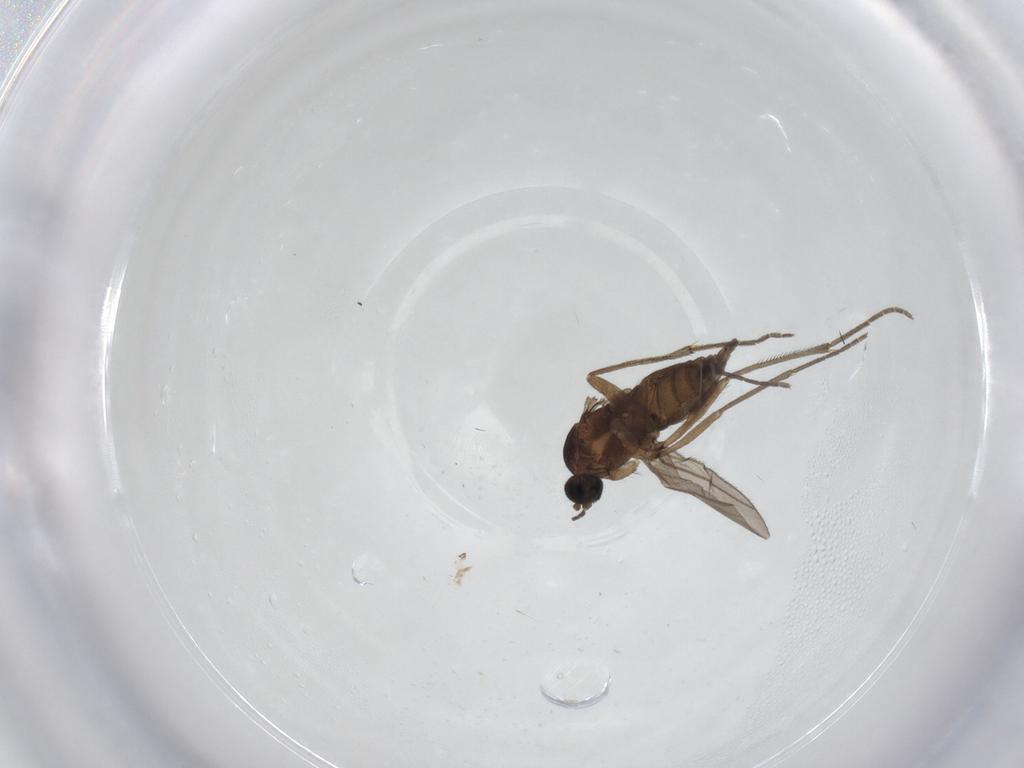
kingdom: Animalia
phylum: Arthropoda
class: Insecta
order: Diptera
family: Sciaridae
